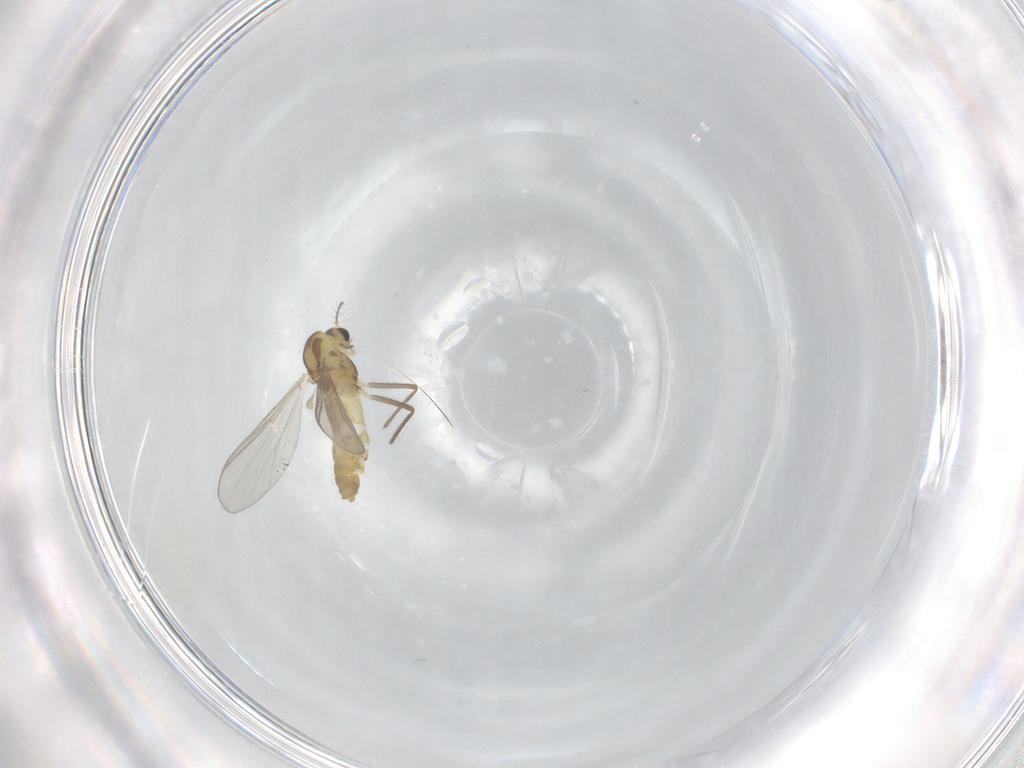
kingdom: Animalia
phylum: Arthropoda
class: Insecta
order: Diptera
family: Chironomidae
